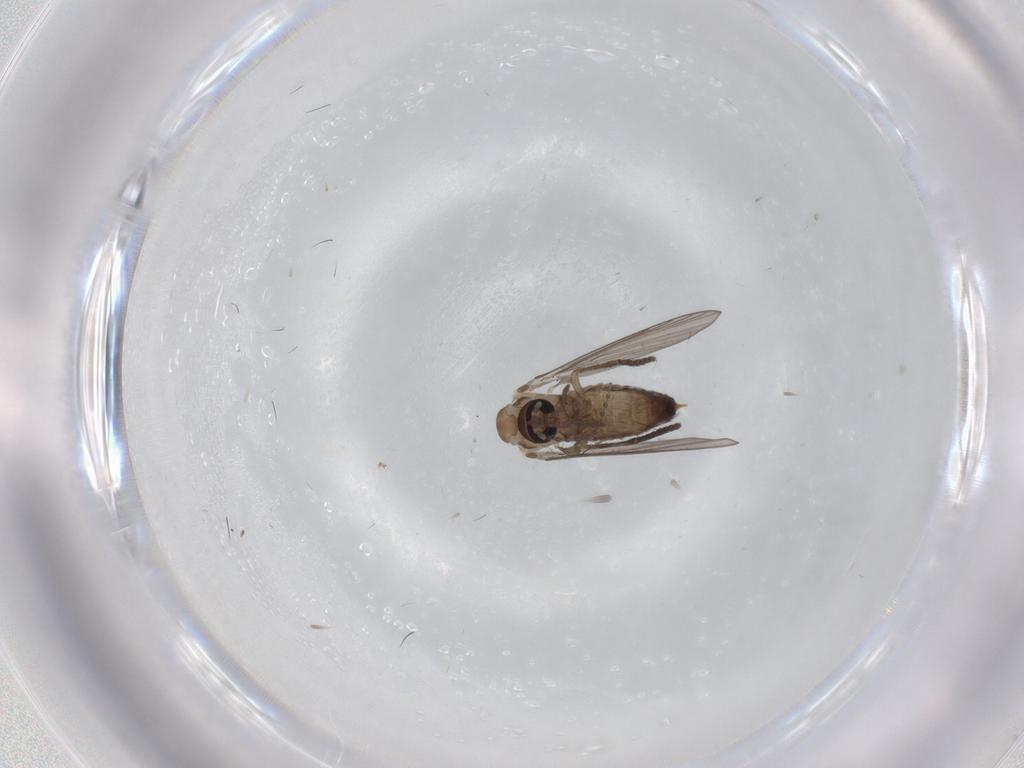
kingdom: Animalia
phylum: Arthropoda
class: Insecta
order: Diptera
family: Psychodidae
